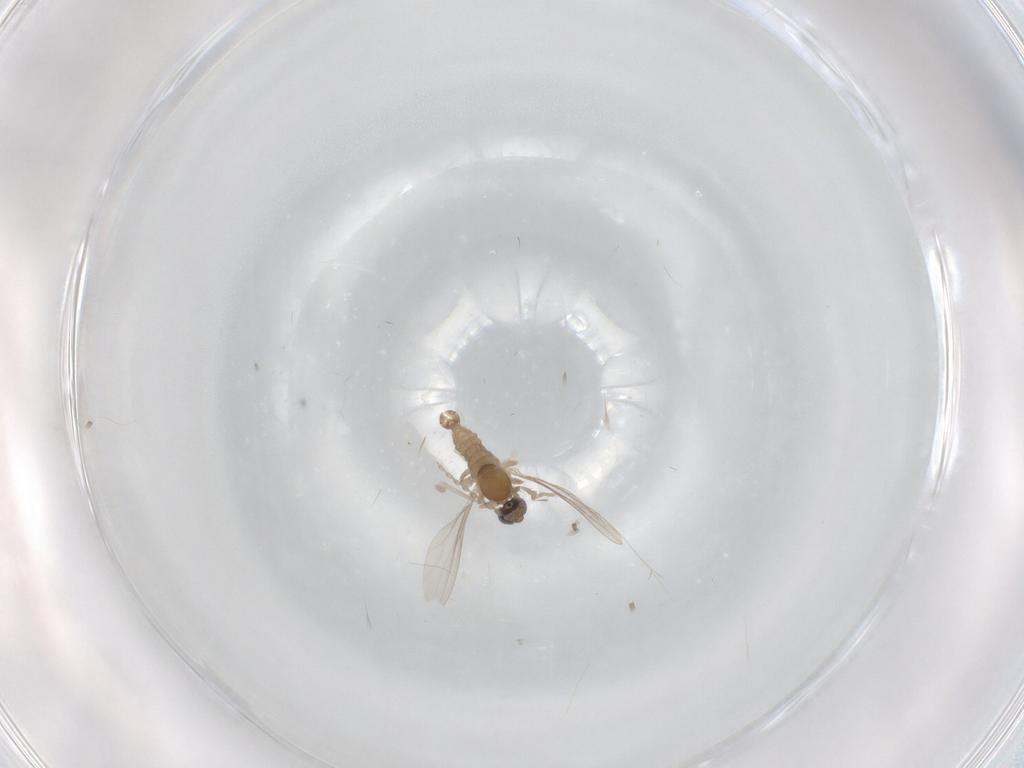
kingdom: Animalia
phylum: Arthropoda
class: Insecta
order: Diptera
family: Cecidomyiidae
